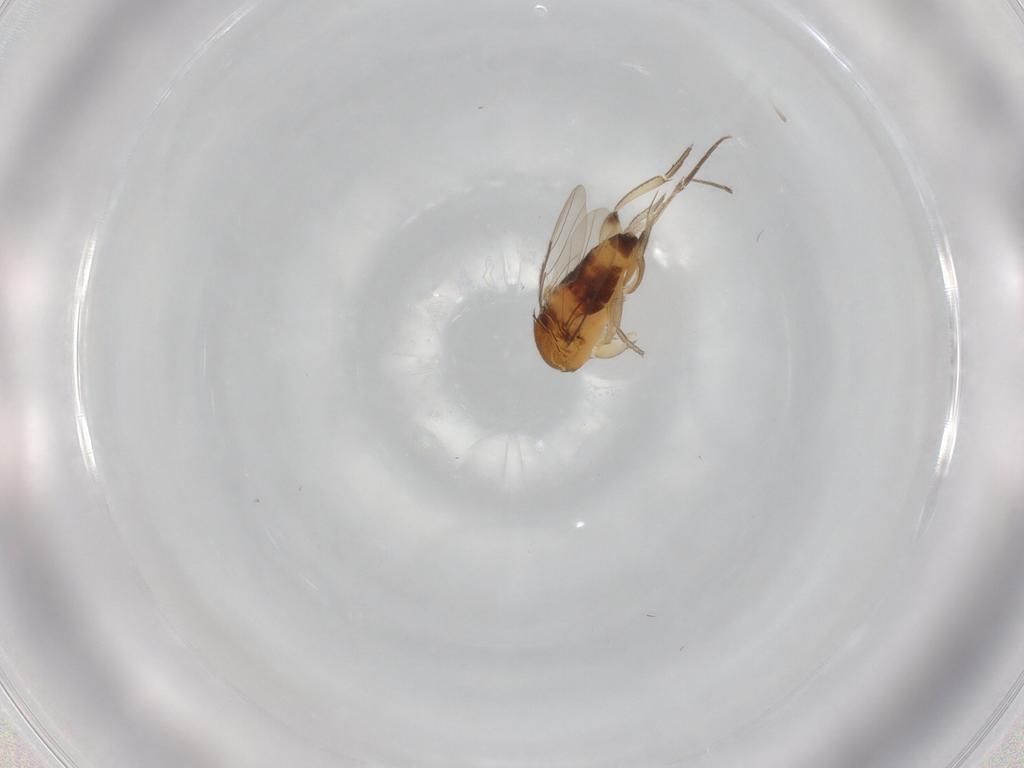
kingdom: Animalia
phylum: Arthropoda
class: Insecta
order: Diptera
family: Phoridae
